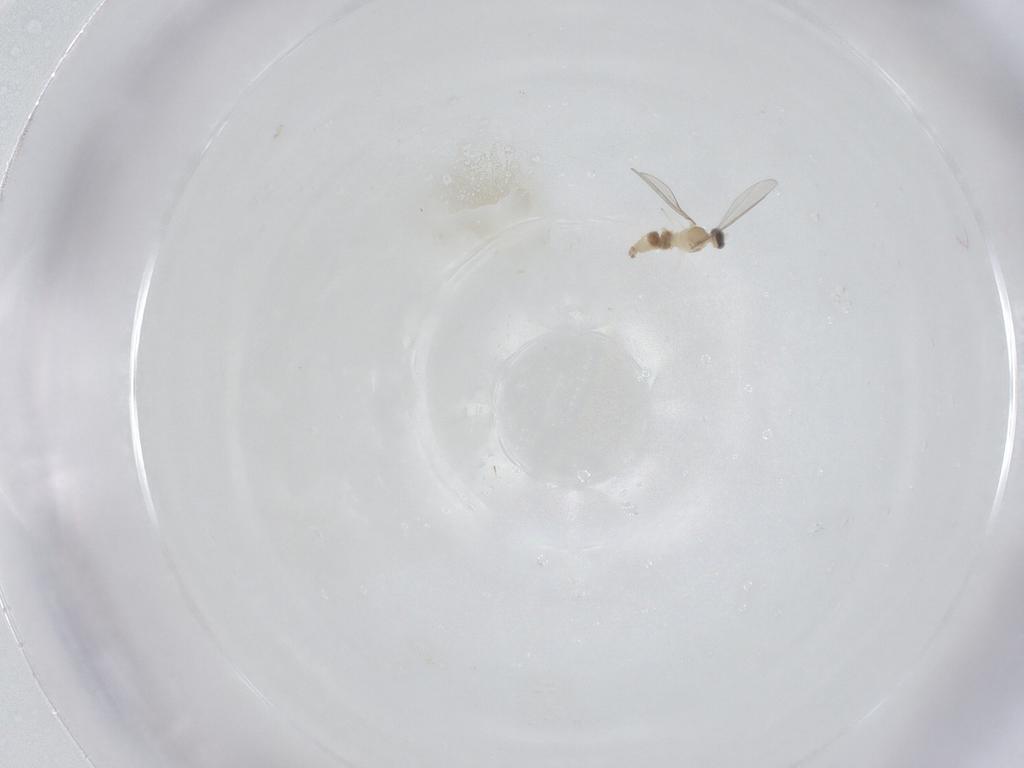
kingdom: Animalia
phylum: Arthropoda
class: Insecta
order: Diptera
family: Cecidomyiidae
